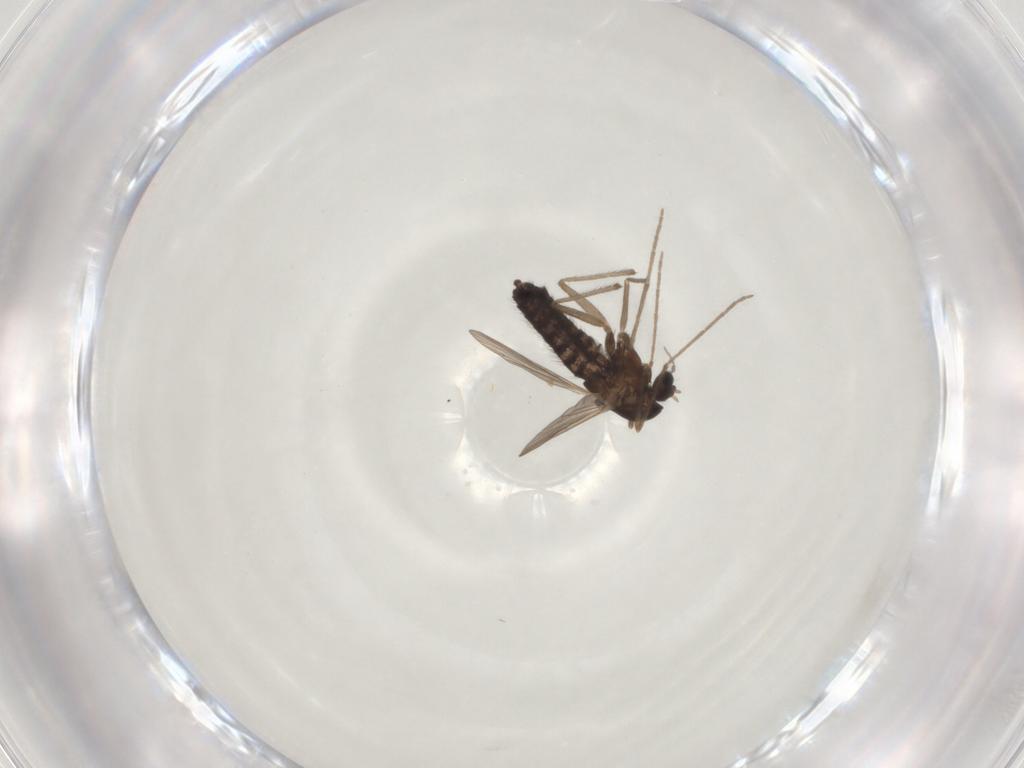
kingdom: Animalia
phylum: Arthropoda
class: Insecta
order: Diptera
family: Chironomidae
